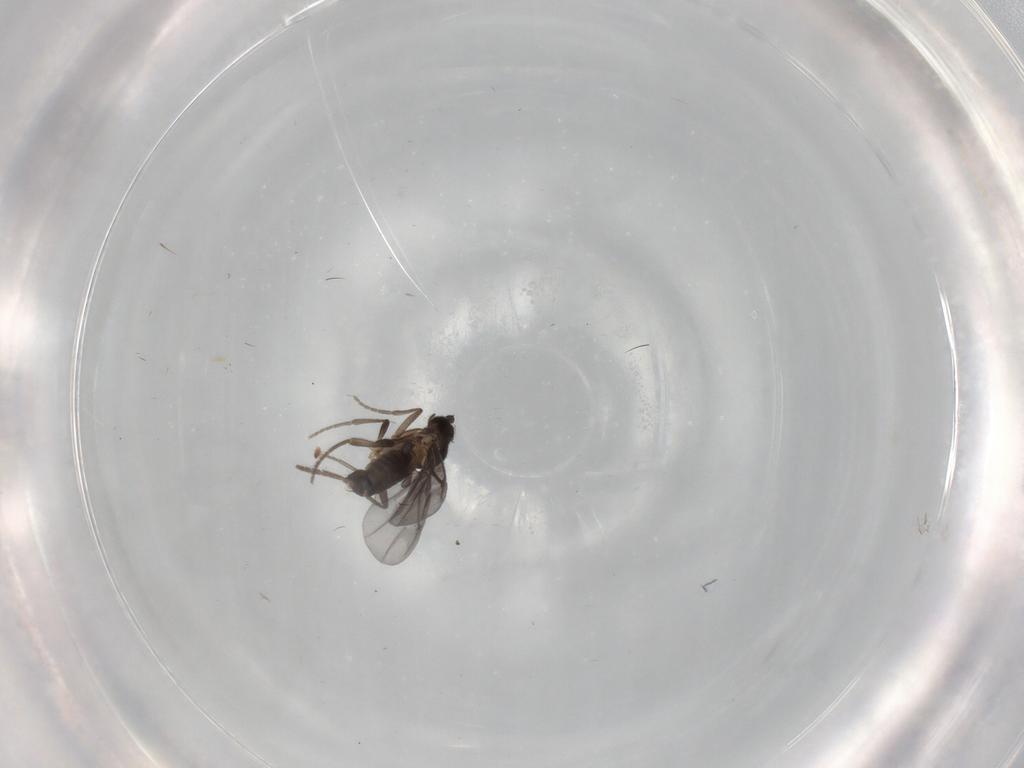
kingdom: Animalia
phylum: Arthropoda
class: Insecta
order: Diptera
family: Phoridae
